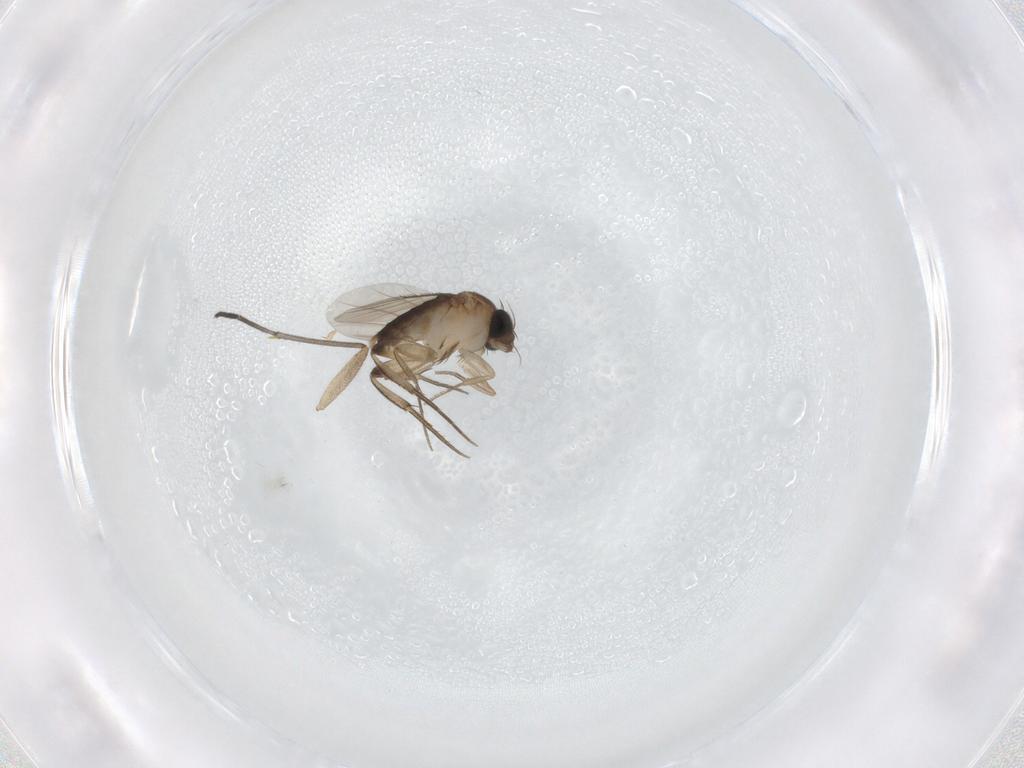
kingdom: Animalia
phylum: Arthropoda
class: Insecta
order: Diptera
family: Phoridae
